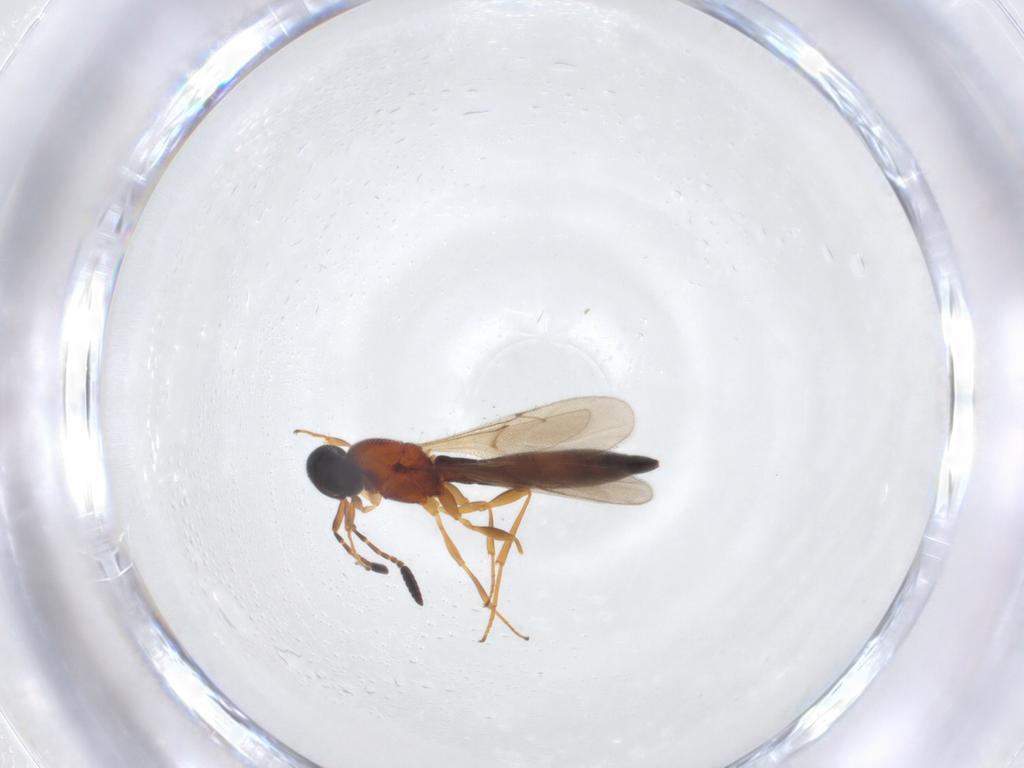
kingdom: Animalia
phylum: Arthropoda
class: Insecta
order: Hymenoptera
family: Scelionidae
